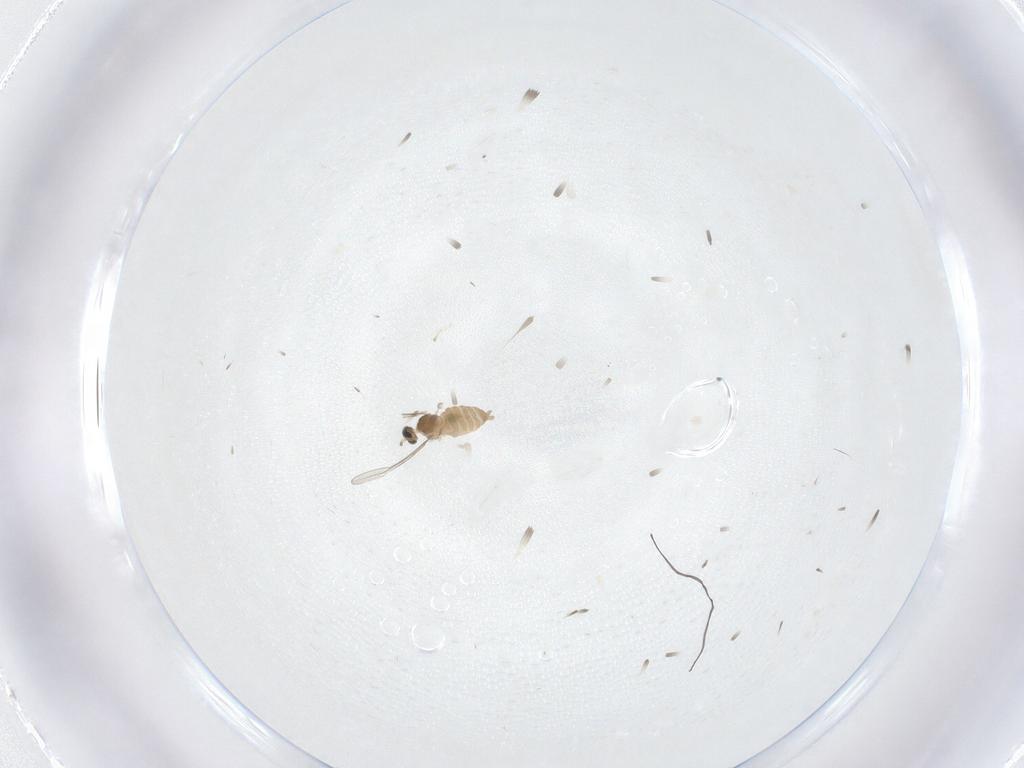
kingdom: Animalia
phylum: Arthropoda
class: Insecta
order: Diptera
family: Cecidomyiidae
